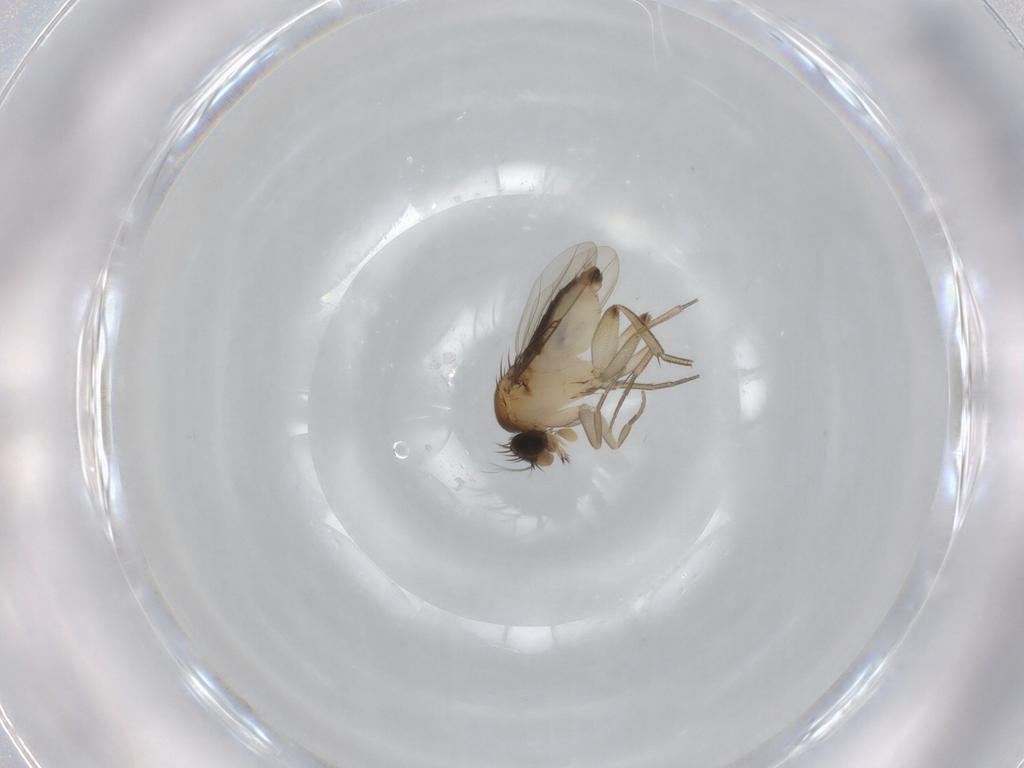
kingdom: Animalia
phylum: Arthropoda
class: Insecta
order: Diptera
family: Phoridae
